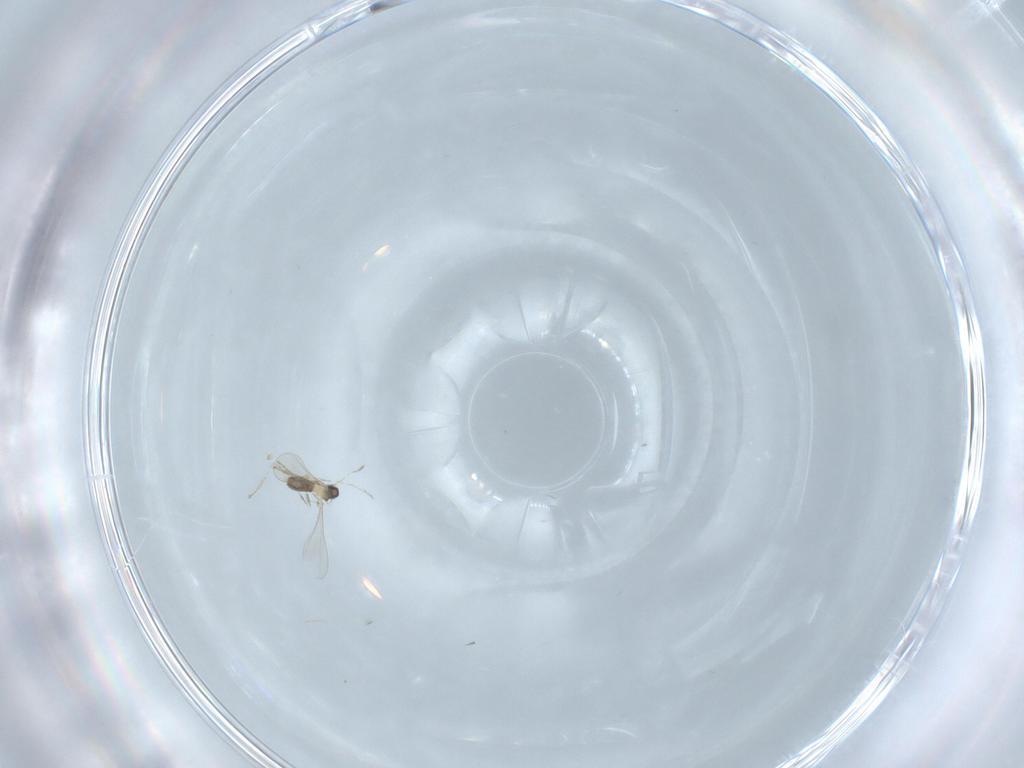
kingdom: Animalia
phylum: Arthropoda
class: Insecta
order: Diptera
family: Cecidomyiidae
